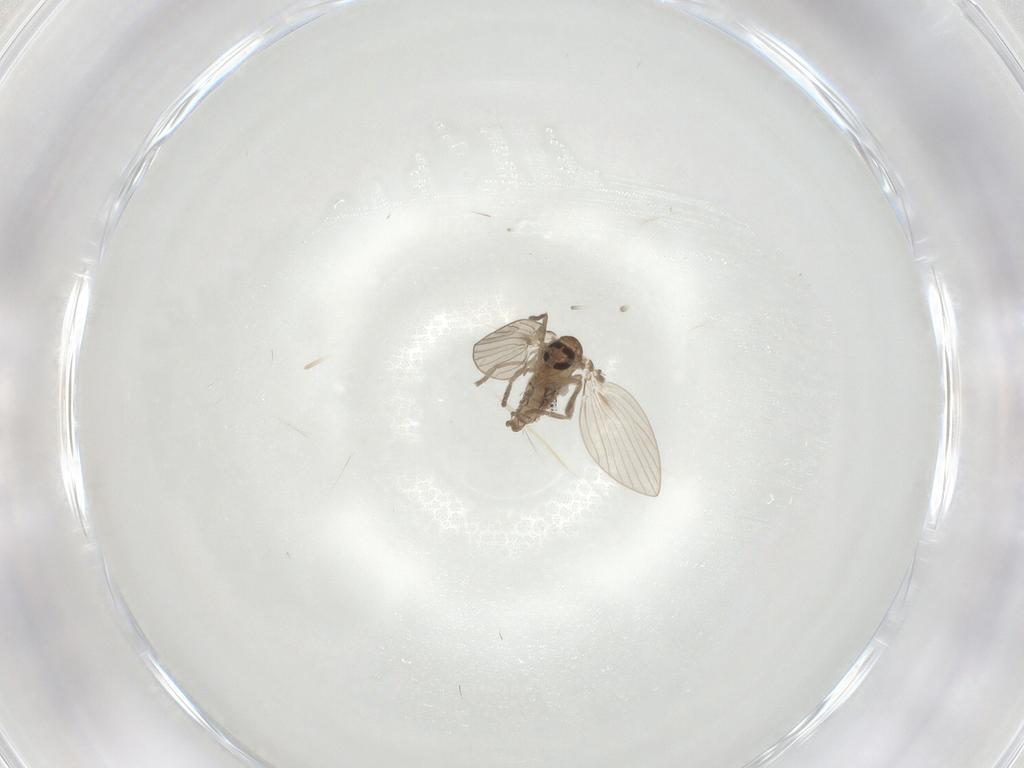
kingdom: Animalia
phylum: Arthropoda
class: Insecta
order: Diptera
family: Psychodidae
